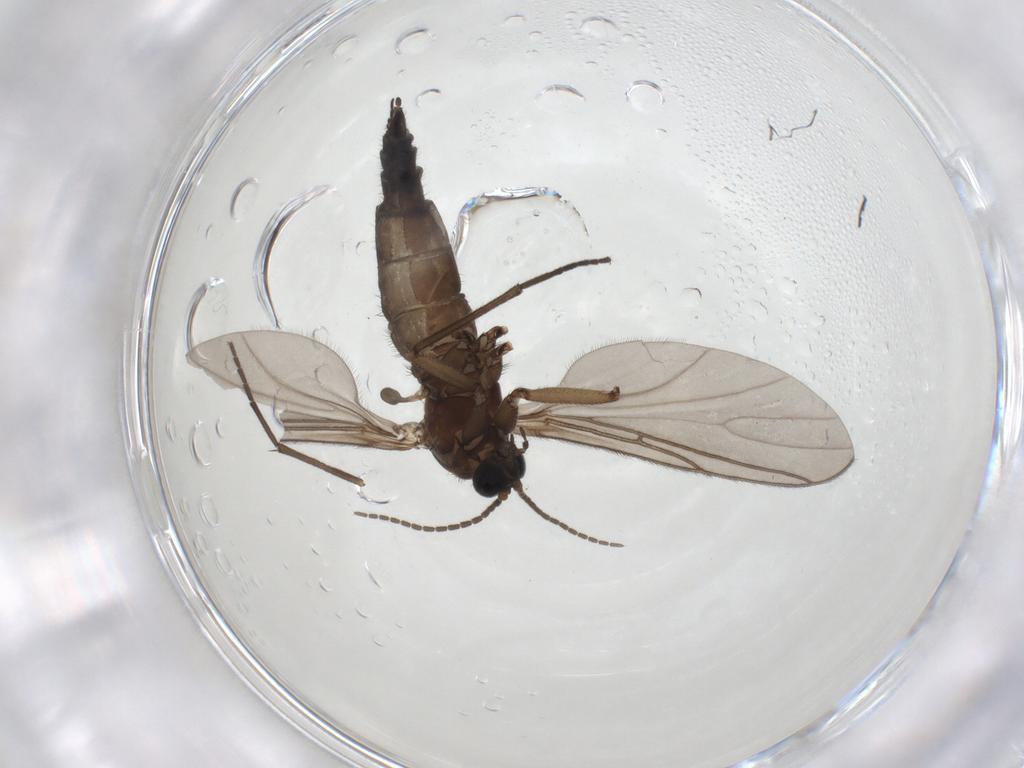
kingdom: Animalia
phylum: Arthropoda
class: Insecta
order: Diptera
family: Sciaridae
